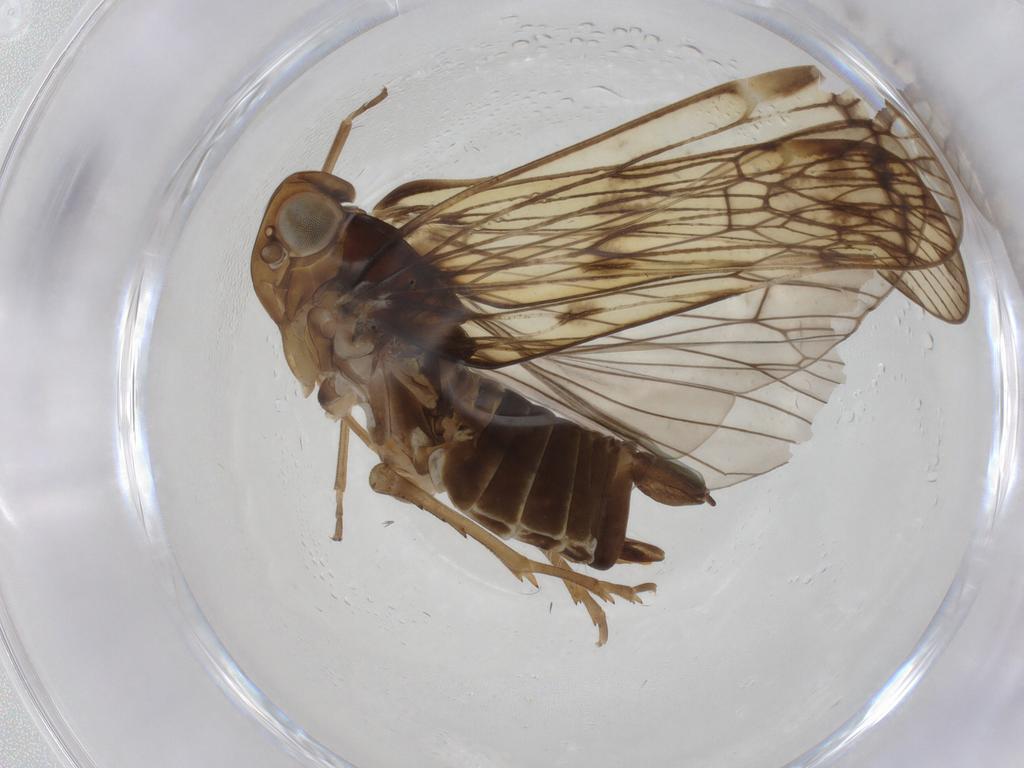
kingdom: Animalia
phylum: Arthropoda
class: Insecta
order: Hemiptera
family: Cixiidae
